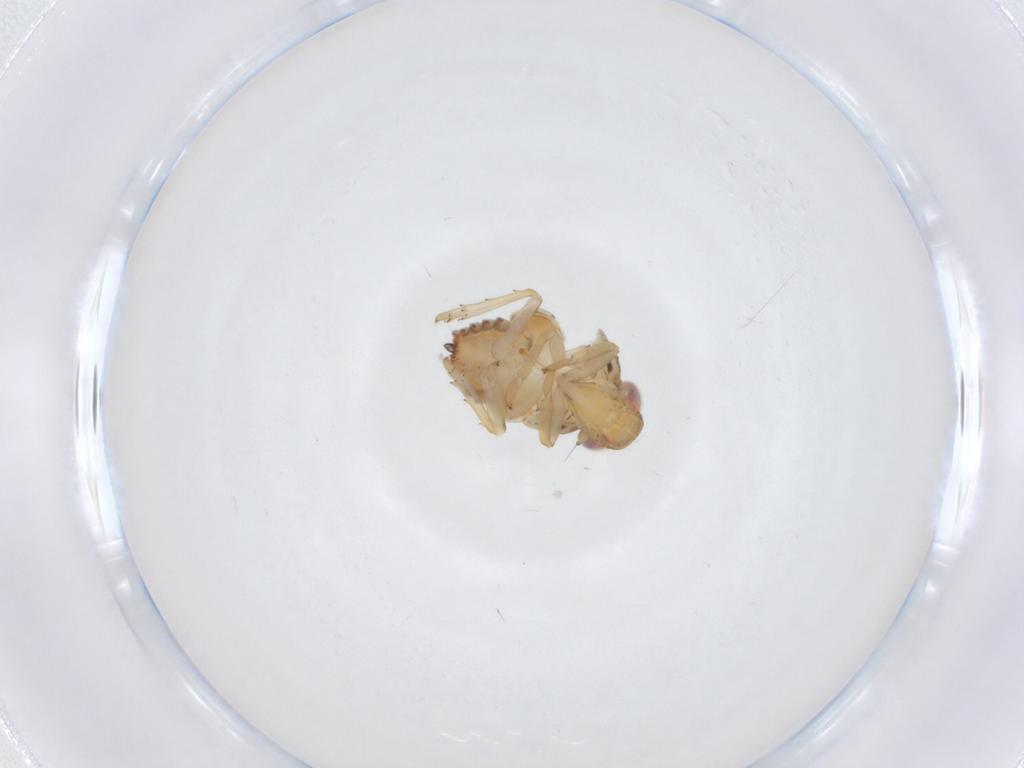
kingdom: Animalia
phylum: Arthropoda
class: Insecta
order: Hemiptera
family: Issidae
